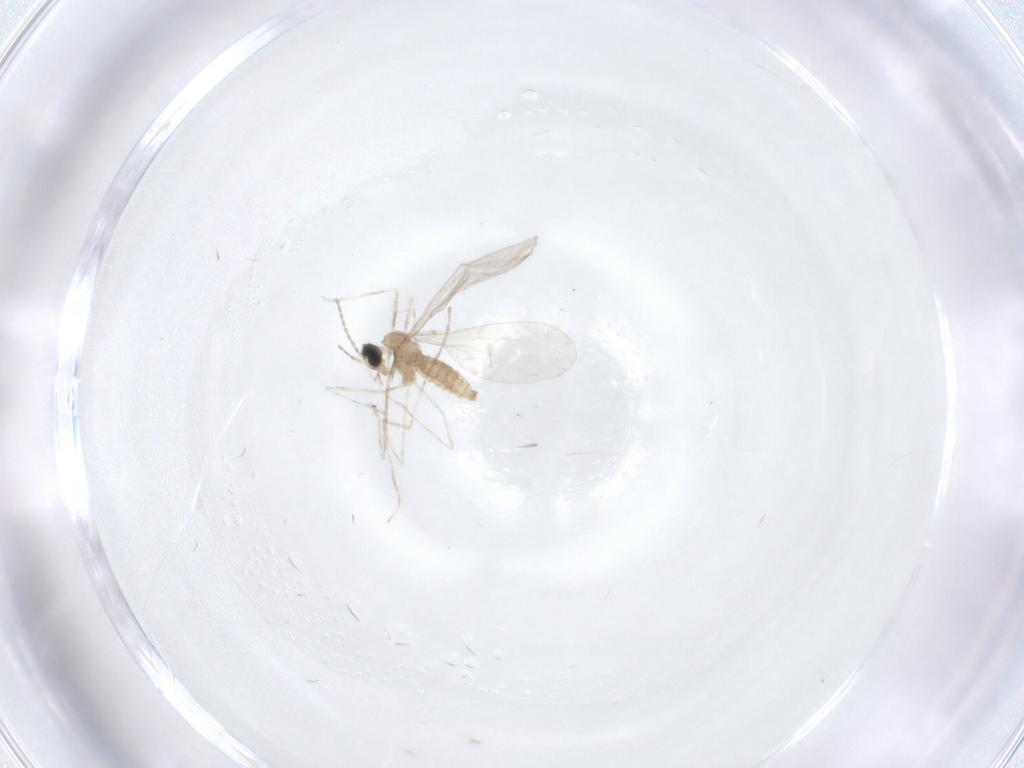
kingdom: Animalia
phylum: Arthropoda
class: Insecta
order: Diptera
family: Cecidomyiidae
